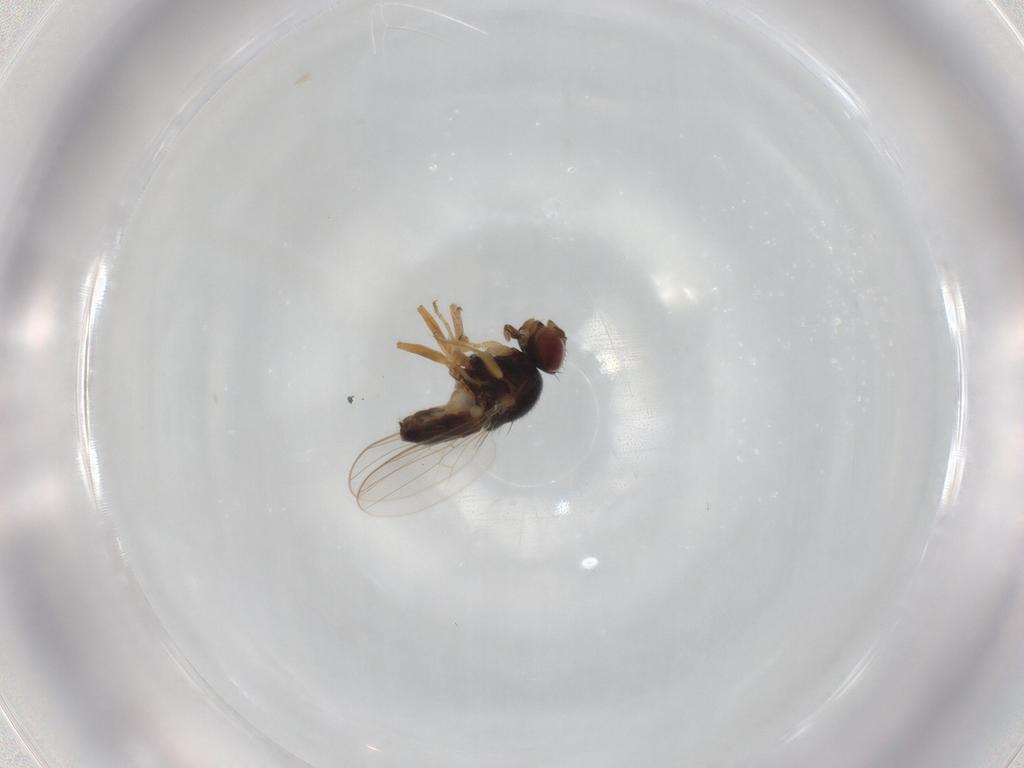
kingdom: Animalia
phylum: Arthropoda
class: Insecta
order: Diptera
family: Chloropidae
